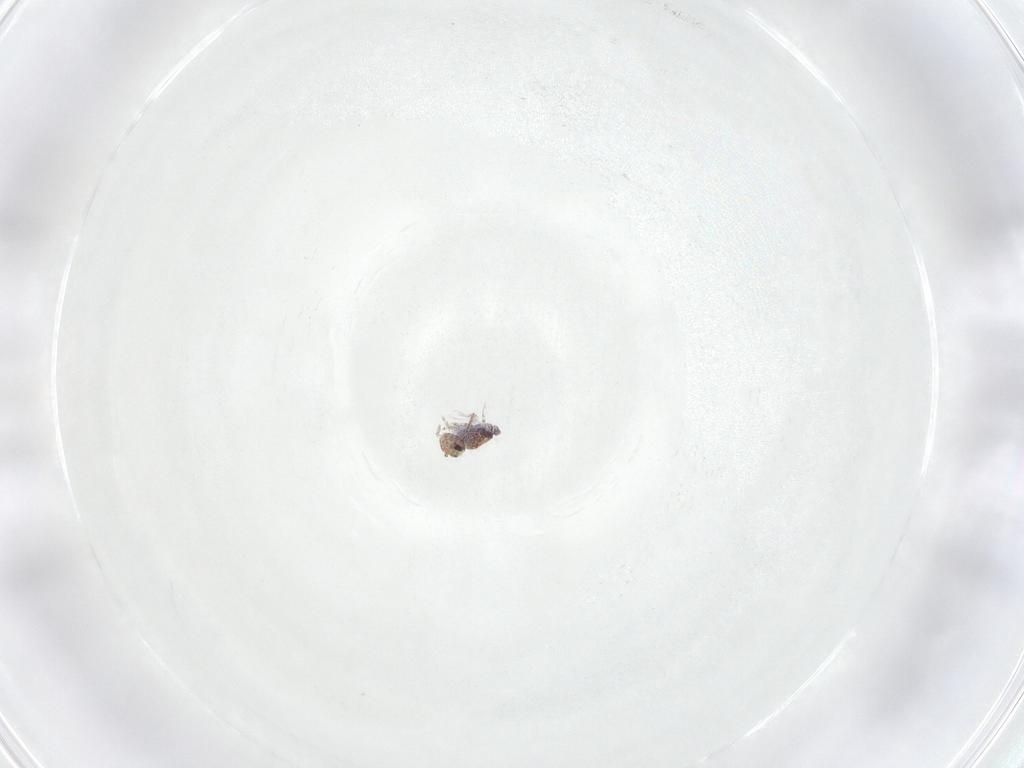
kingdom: Animalia
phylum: Arthropoda
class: Collembola
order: Symphypleona
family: Bourletiellidae
